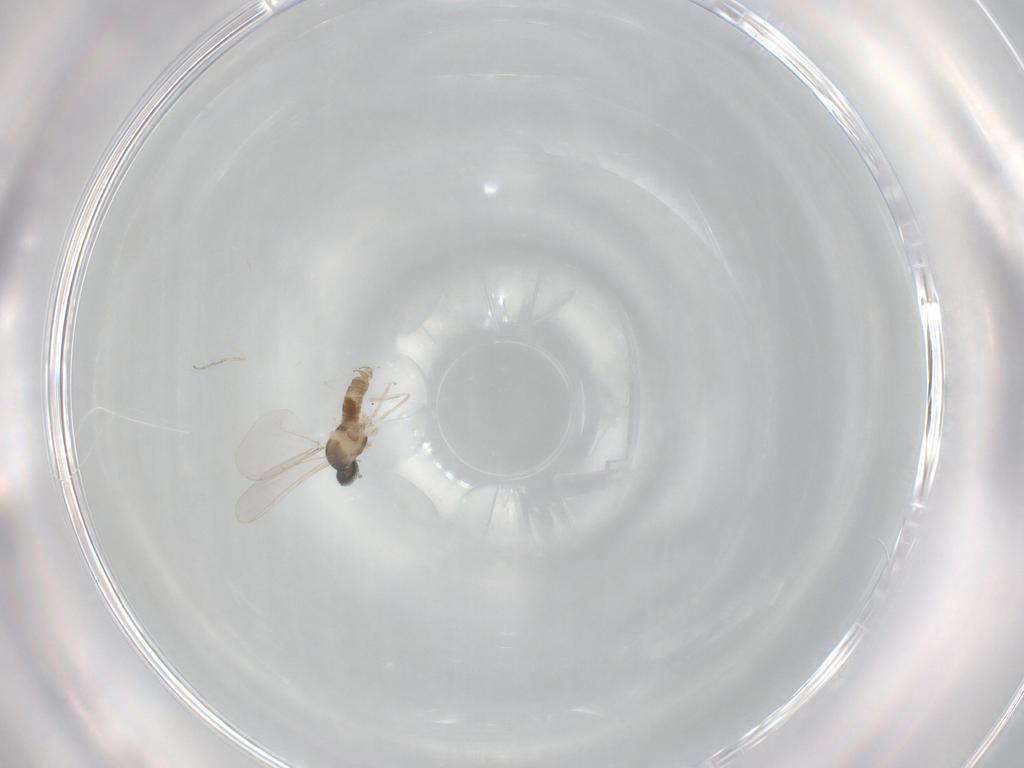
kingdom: Animalia
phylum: Arthropoda
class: Insecta
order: Diptera
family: Cecidomyiidae
